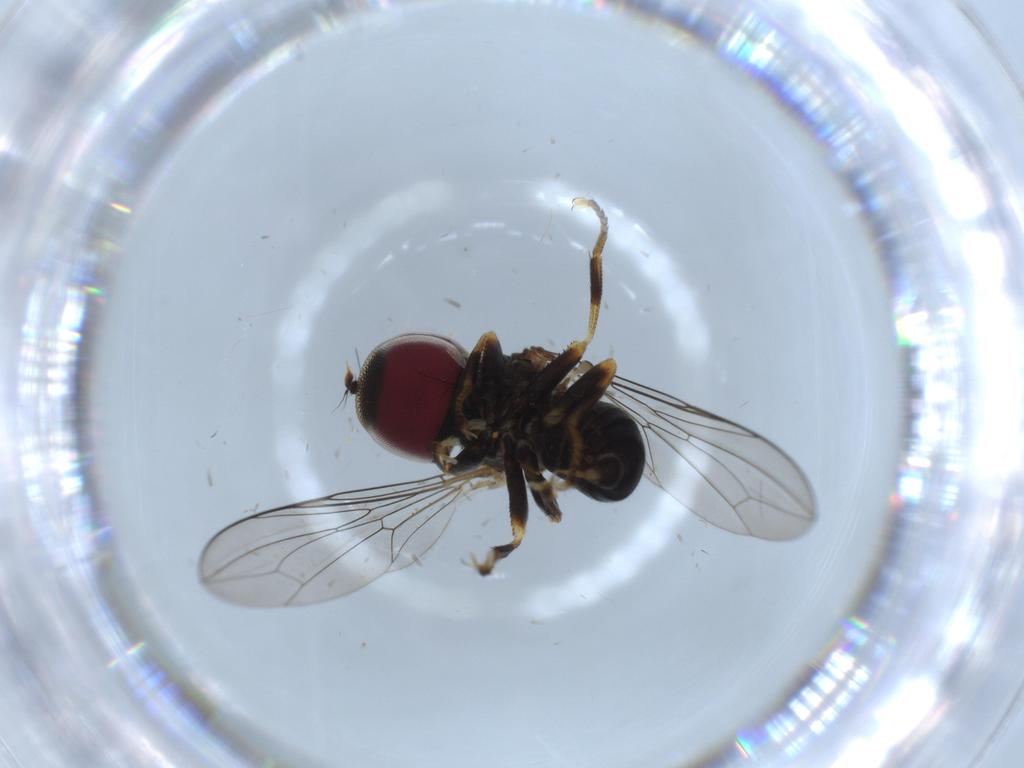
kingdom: Animalia
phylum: Arthropoda
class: Insecta
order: Diptera
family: Pipunculidae
